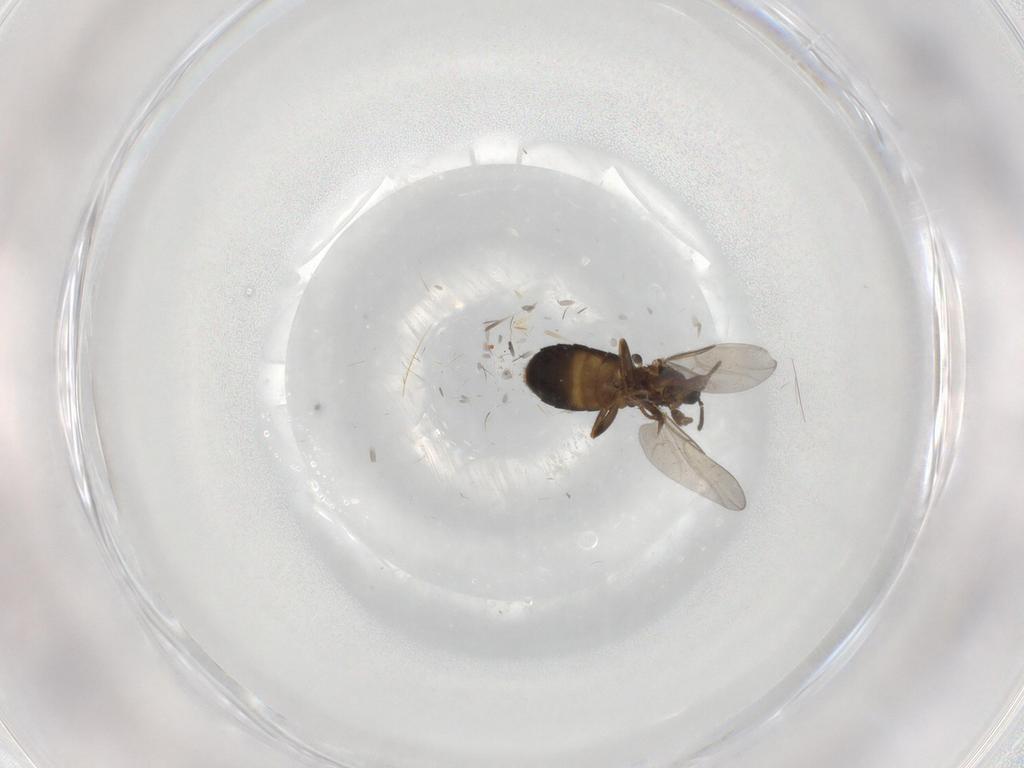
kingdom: Animalia
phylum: Arthropoda
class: Insecta
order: Diptera
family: Cecidomyiidae
